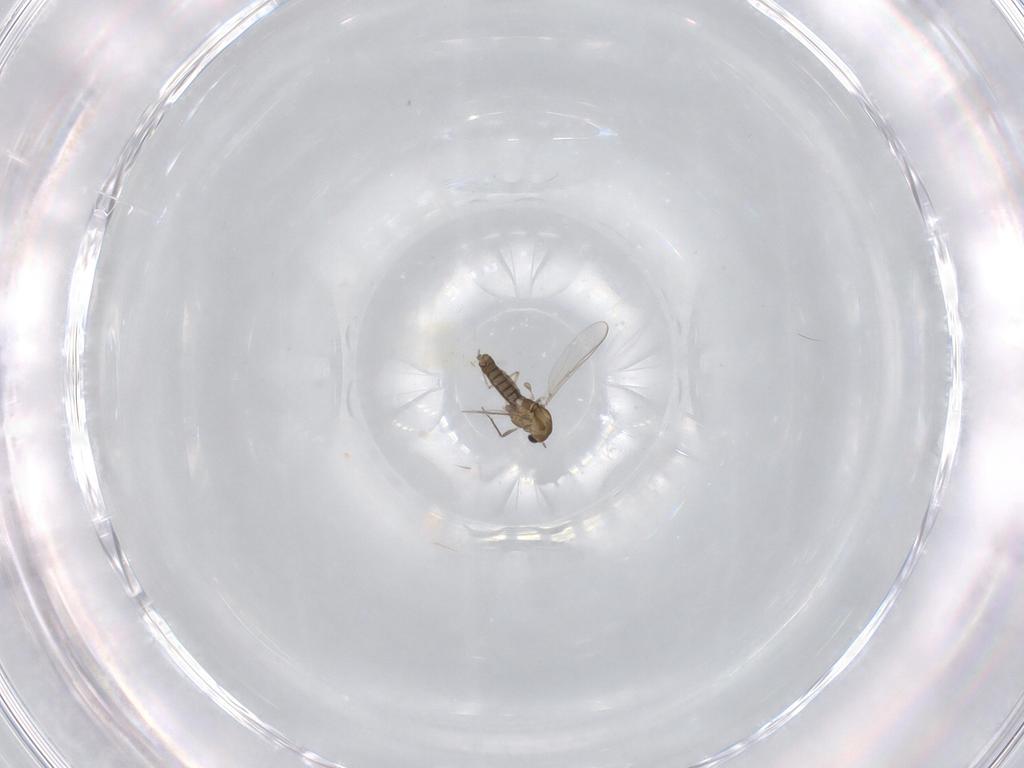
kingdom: Animalia
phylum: Arthropoda
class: Insecta
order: Diptera
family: Chironomidae
